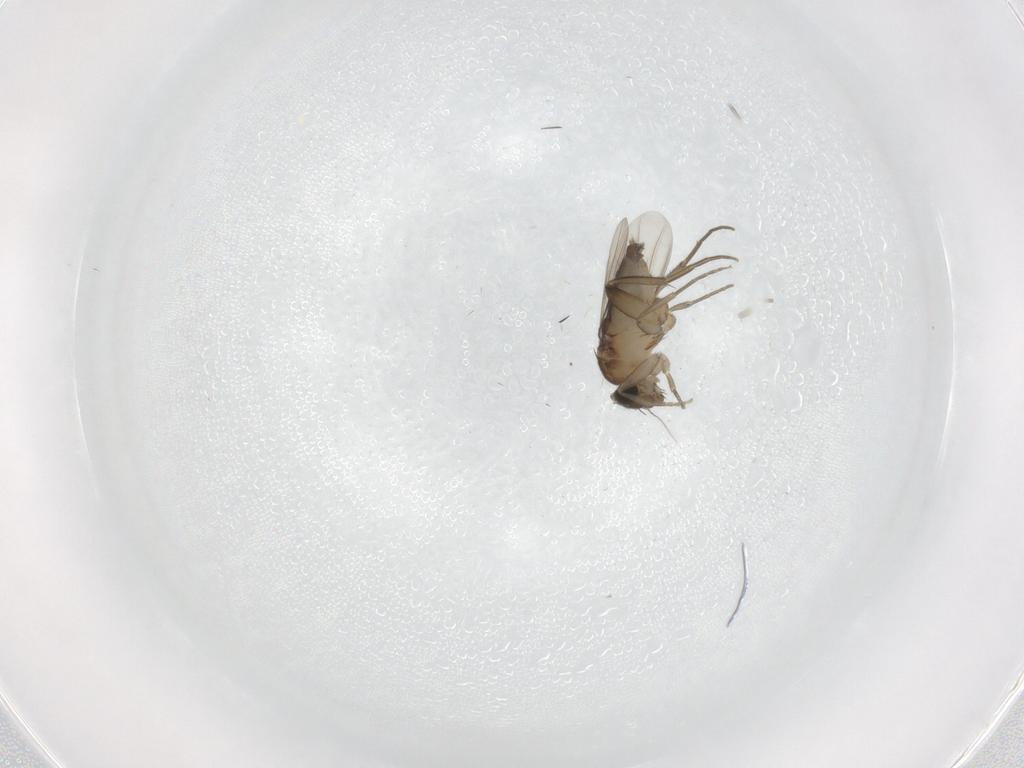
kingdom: Animalia
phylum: Arthropoda
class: Insecta
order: Diptera
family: Phoridae
